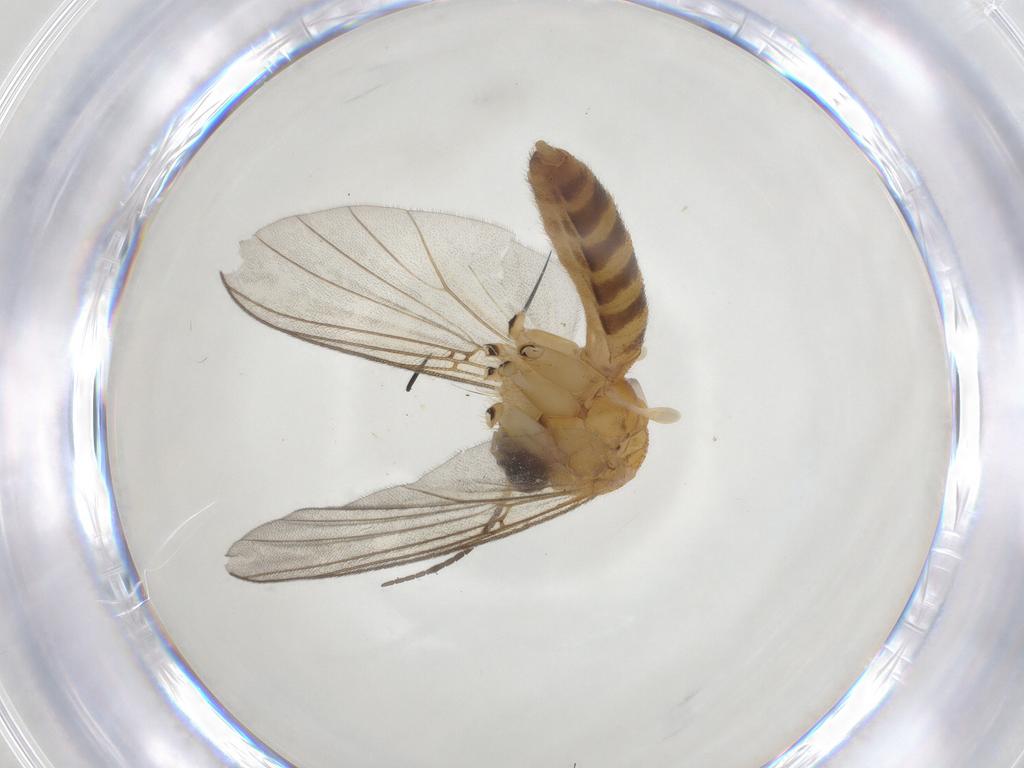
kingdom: Animalia
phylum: Arthropoda
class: Insecta
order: Diptera
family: Mycetophilidae
